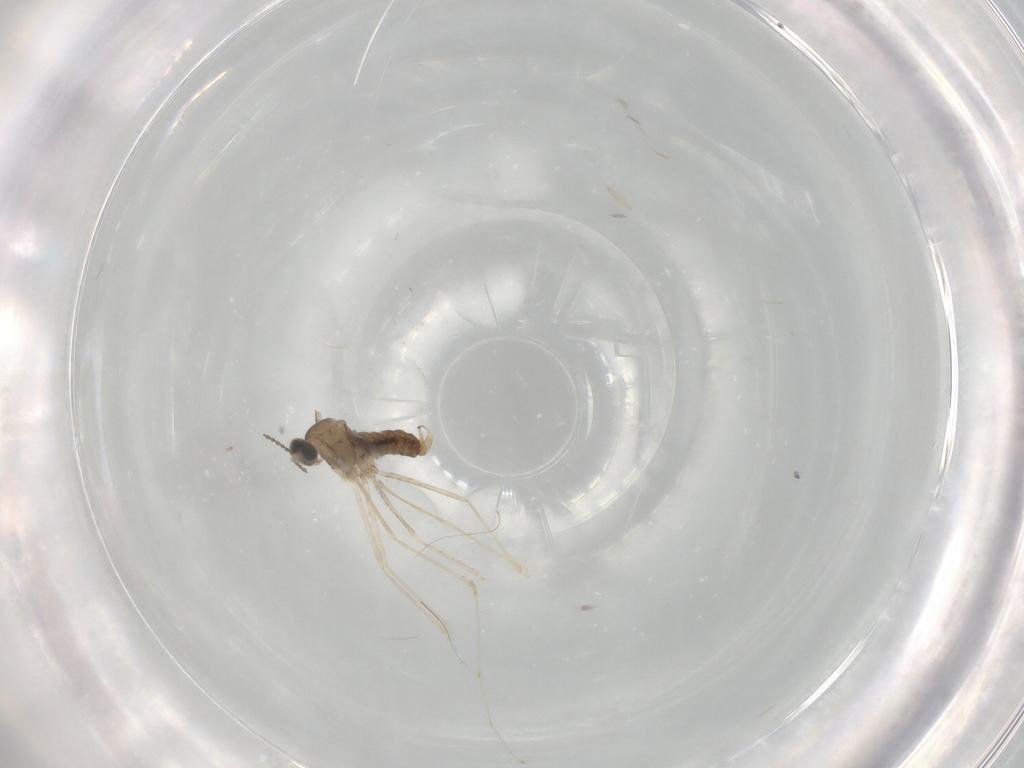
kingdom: Animalia
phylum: Arthropoda
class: Insecta
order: Diptera
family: Cecidomyiidae
